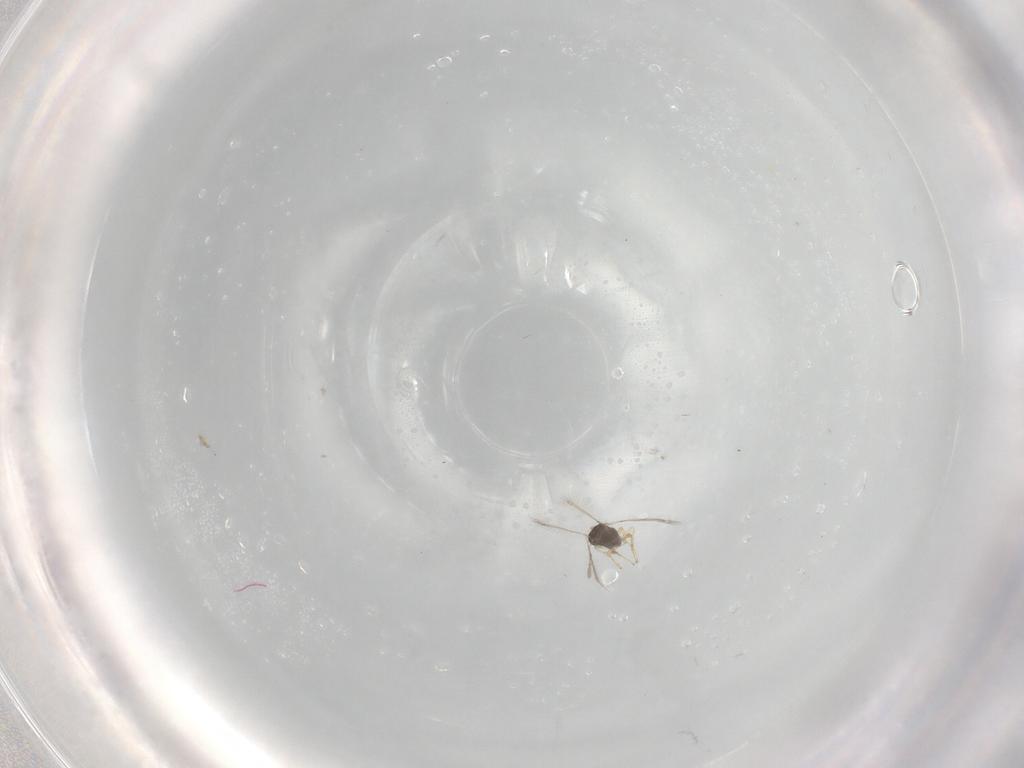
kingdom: Animalia
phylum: Arthropoda
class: Insecta
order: Hymenoptera
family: Mymaridae
